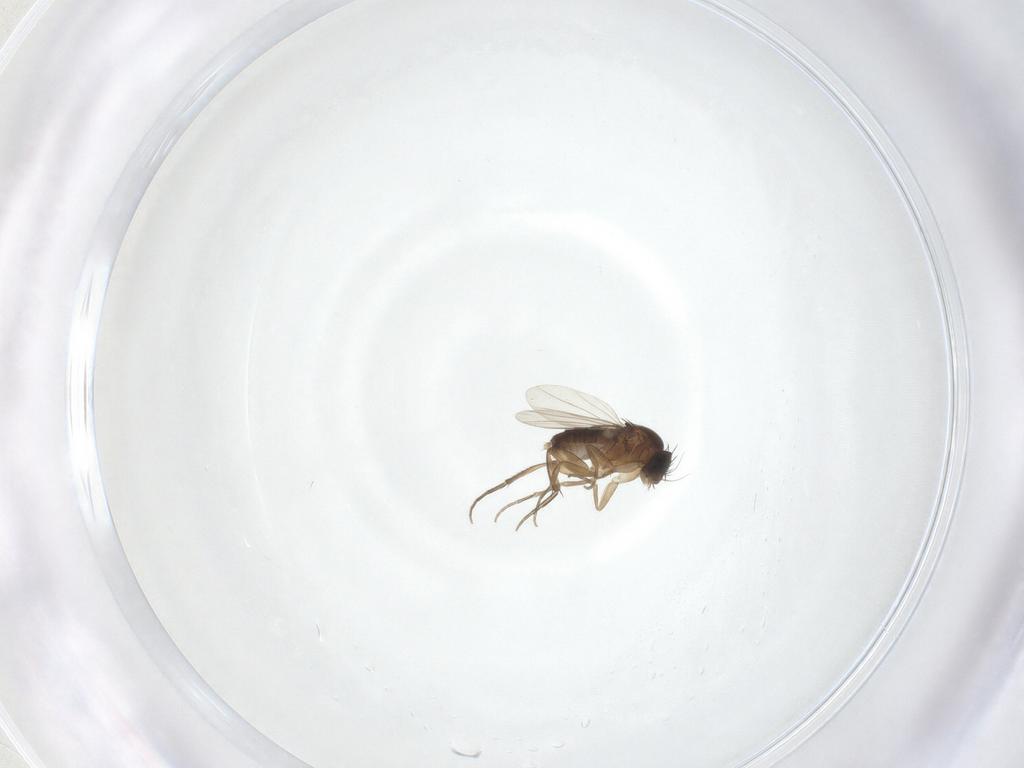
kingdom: Animalia
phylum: Arthropoda
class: Insecta
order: Diptera
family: Phoridae
